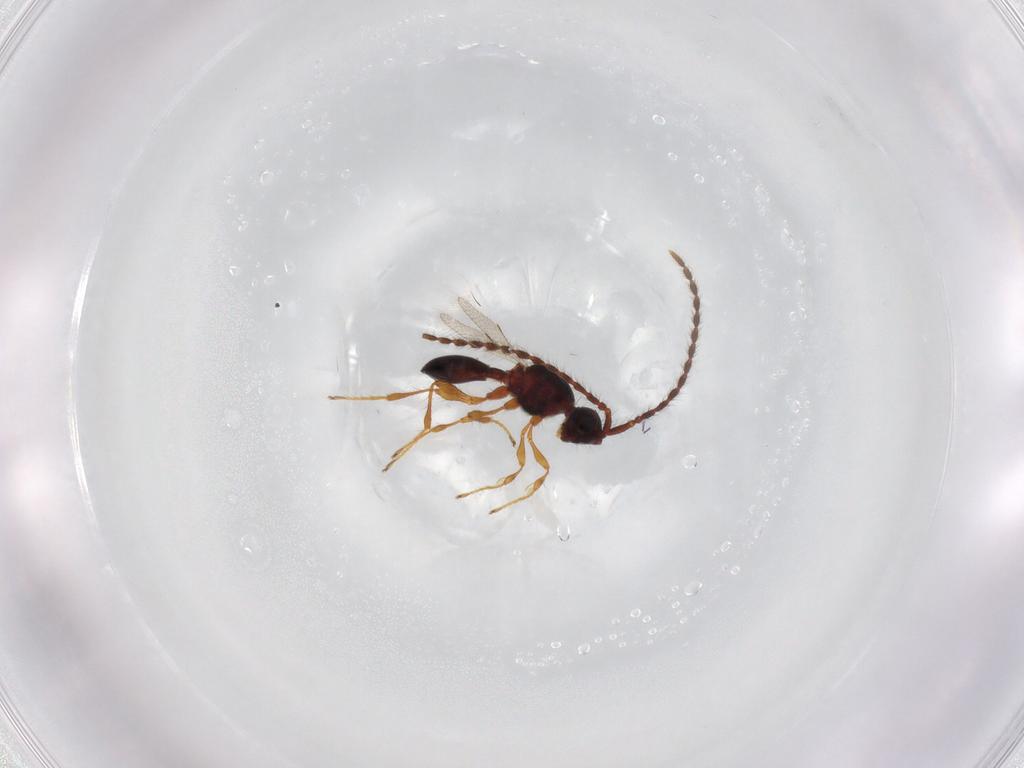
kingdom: Animalia
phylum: Arthropoda
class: Insecta
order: Hymenoptera
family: Diapriidae
